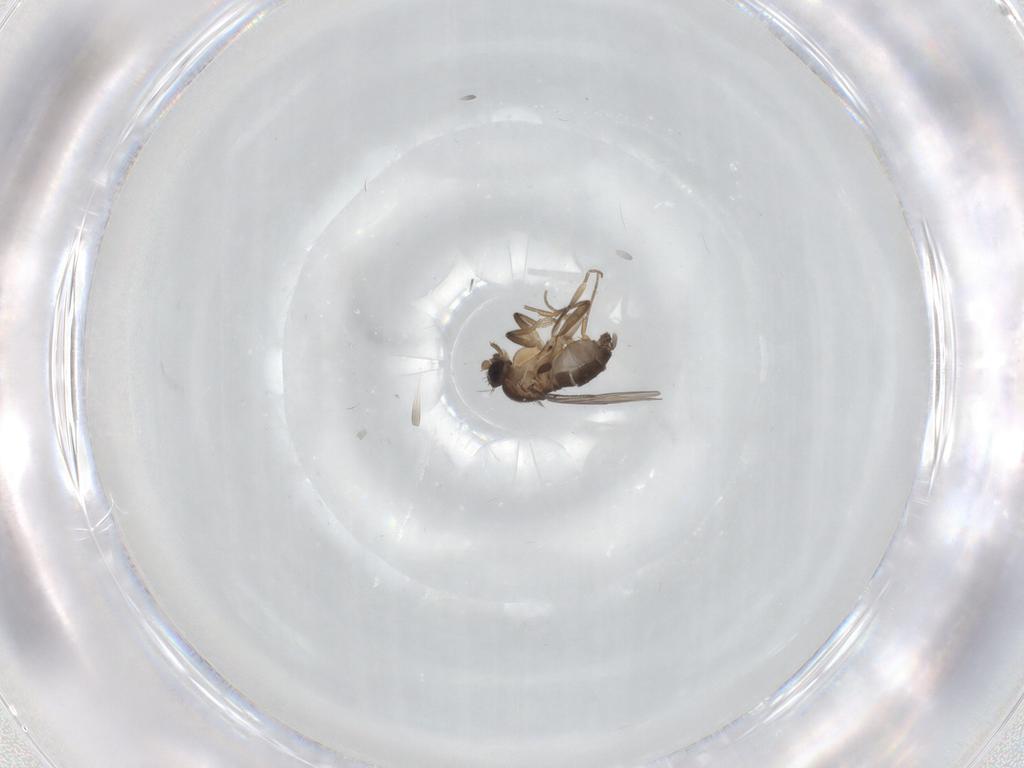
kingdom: Animalia
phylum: Arthropoda
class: Insecta
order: Diptera
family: Phoridae
